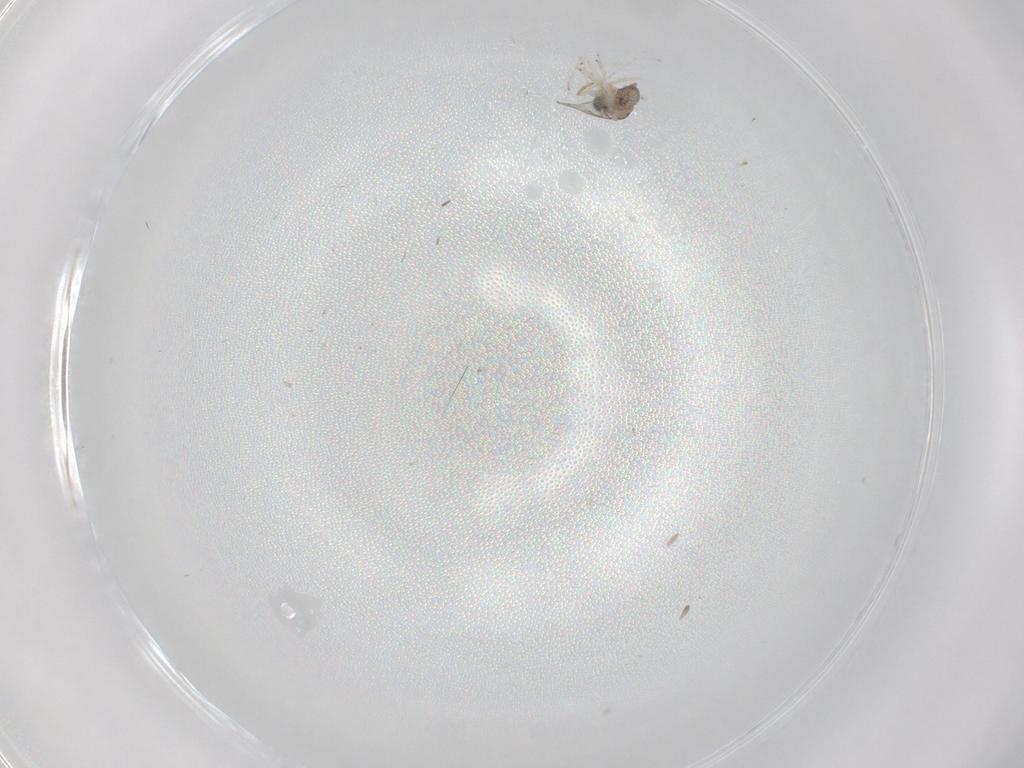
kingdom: Animalia
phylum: Arthropoda
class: Insecta
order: Diptera
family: Cecidomyiidae
